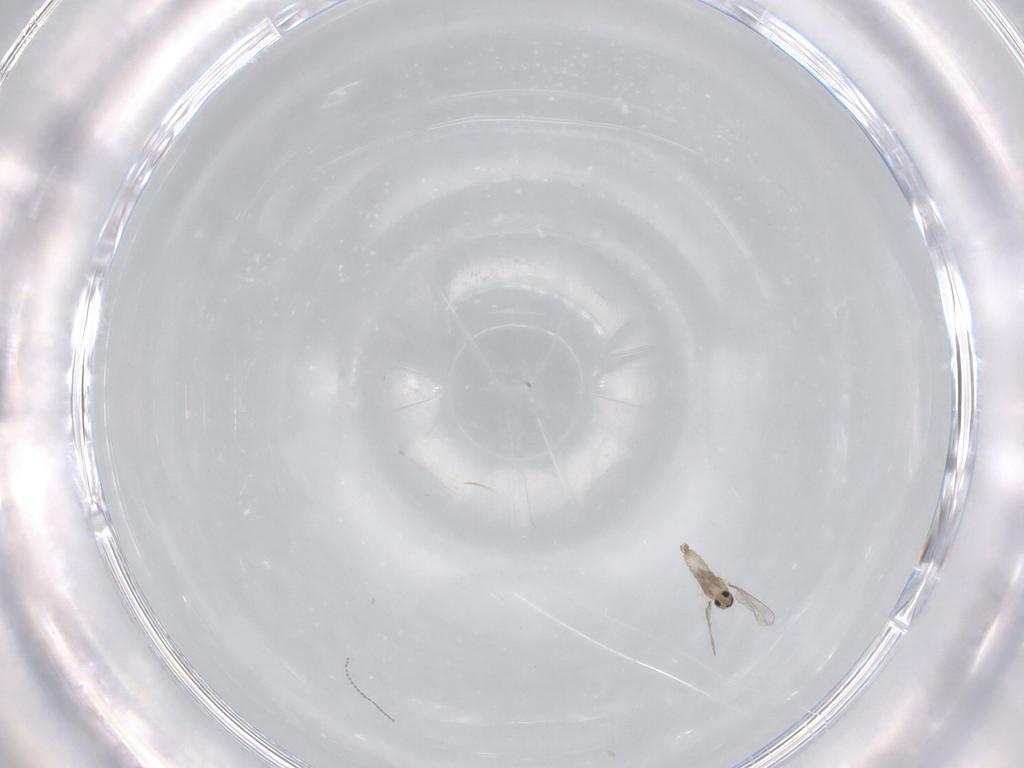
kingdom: Animalia
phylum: Arthropoda
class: Insecta
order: Diptera
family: Cecidomyiidae
